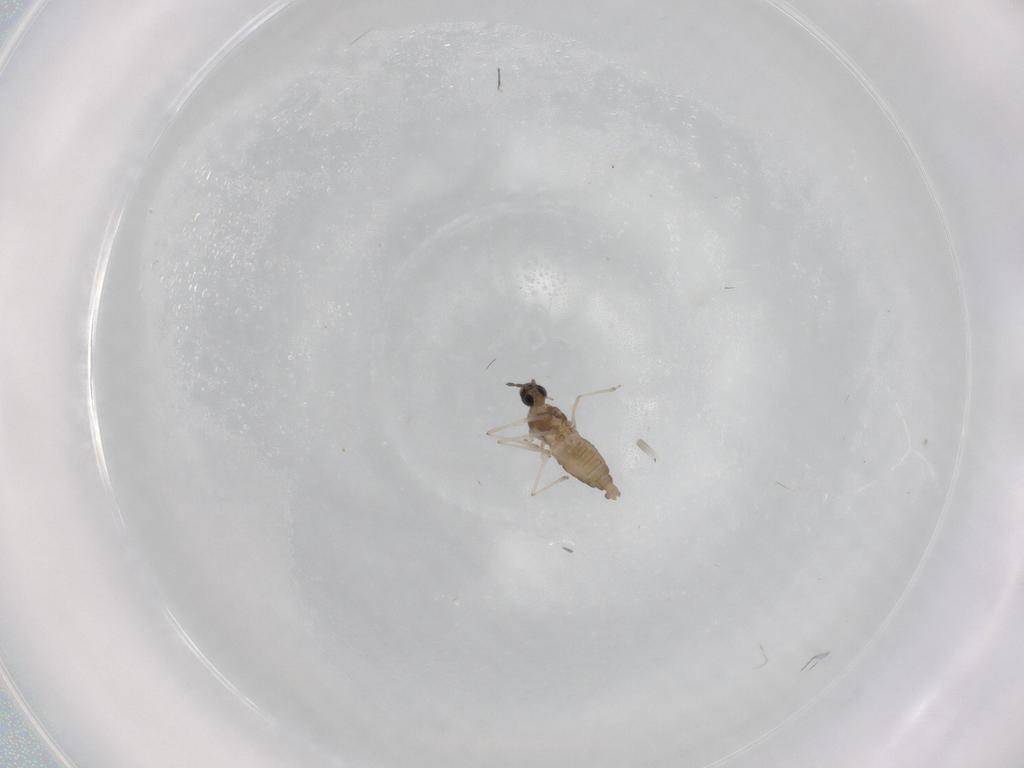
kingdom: Animalia
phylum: Arthropoda
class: Insecta
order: Diptera
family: Cecidomyiidae
